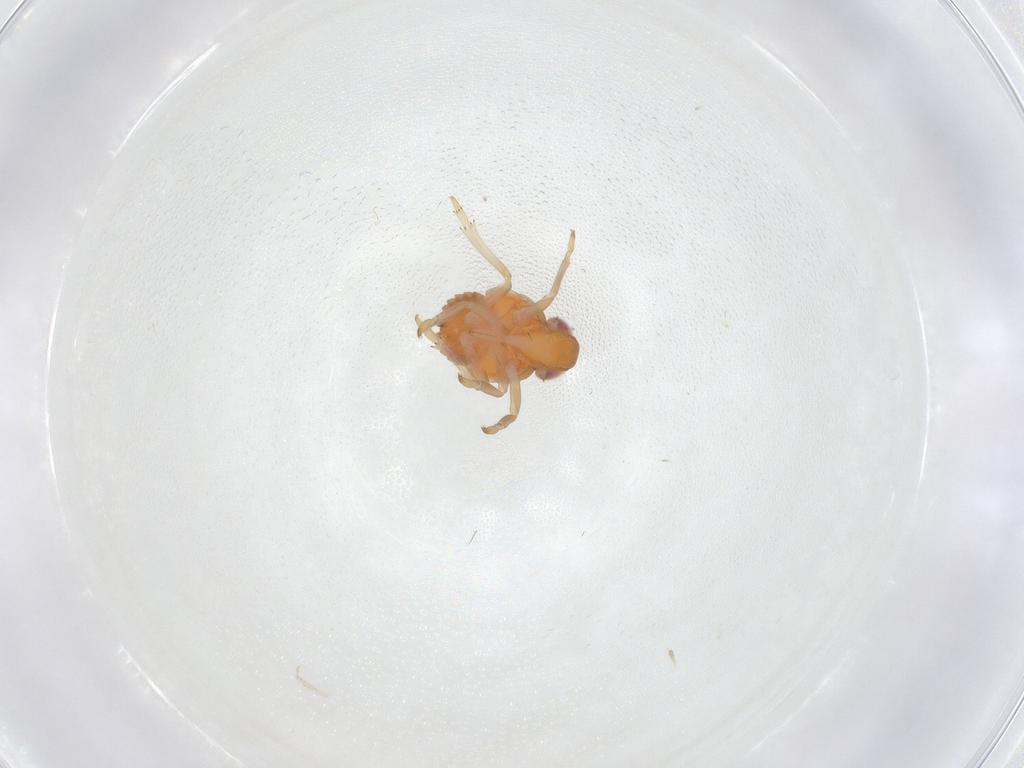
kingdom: Animalia
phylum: Arthropoda
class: Insecta
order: Hemiptera
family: Fulgoroidea_incertae_sedis
